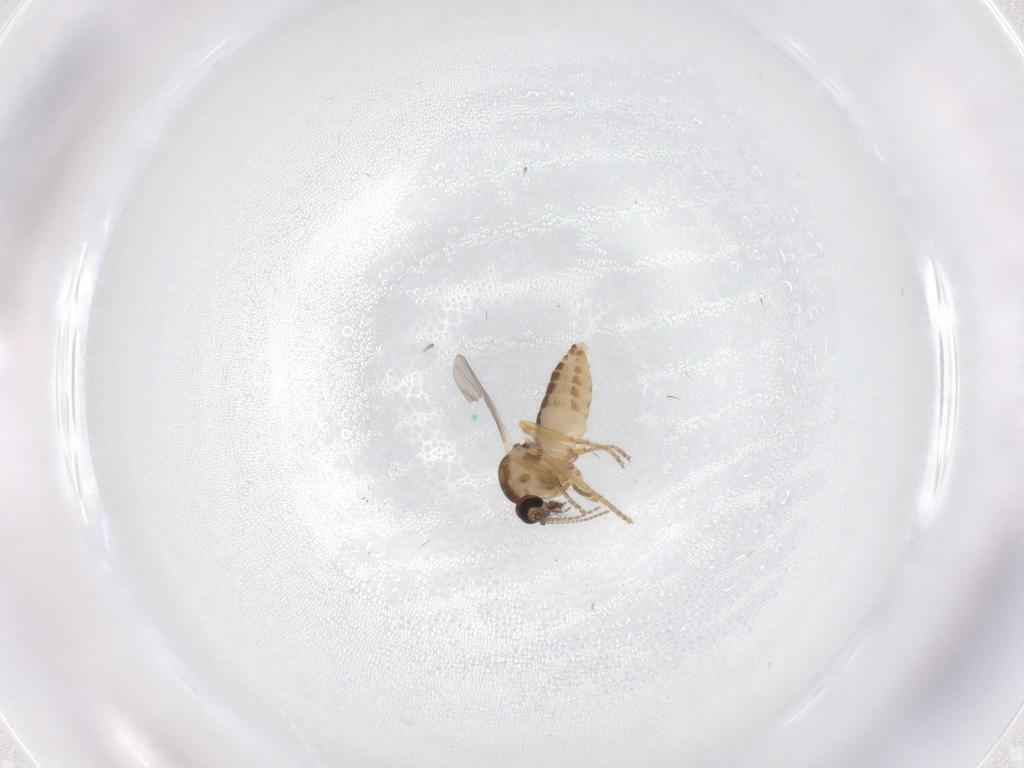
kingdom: Animalia
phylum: Arthropoda
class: Insecta
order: Diptera
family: Ceratopogonidae
